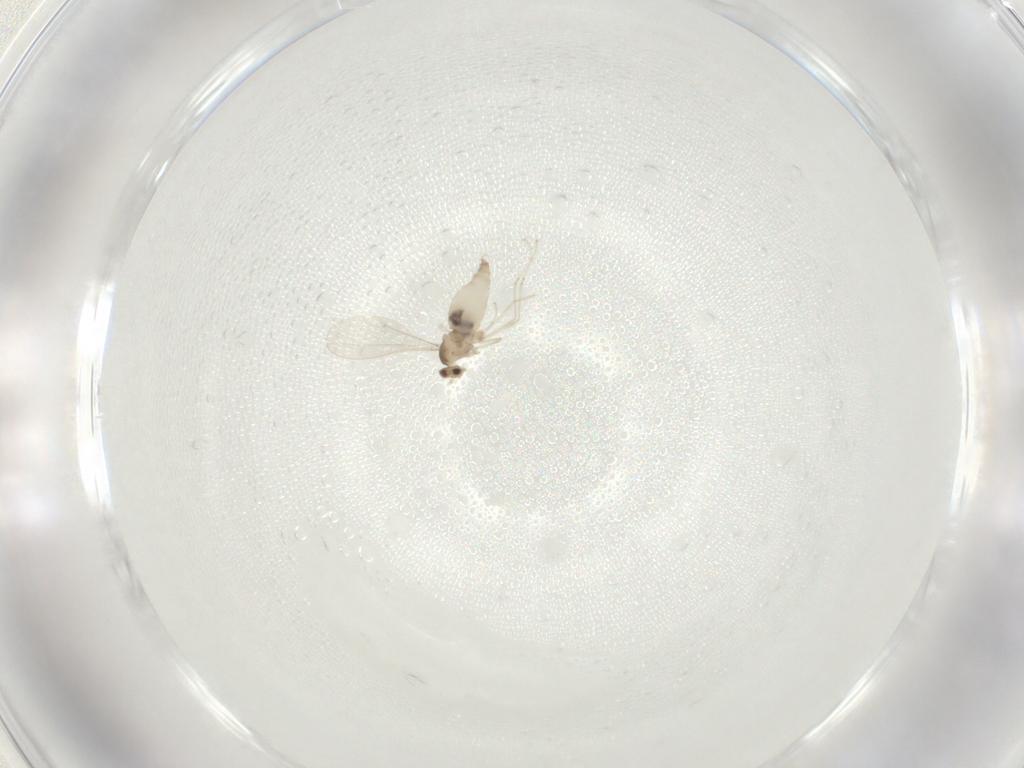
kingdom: Animalia
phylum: Arthropoda
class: Insecta
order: Diptera
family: Cecidomyiidae
